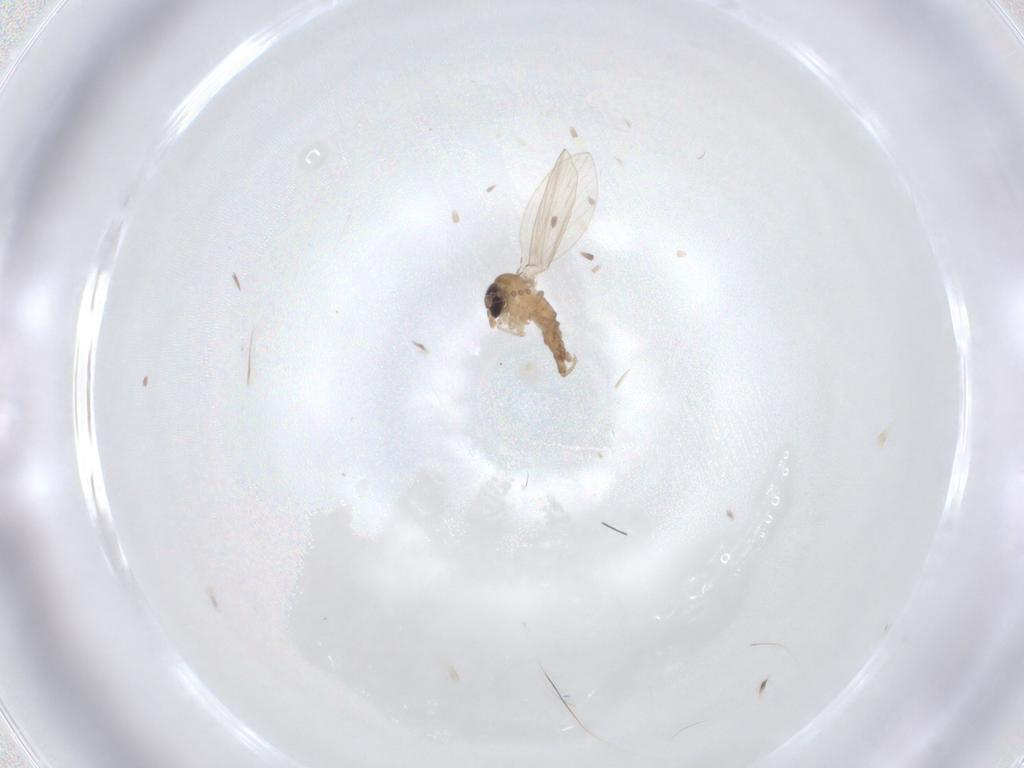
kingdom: Animalia
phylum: Arthropoda
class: Insecta
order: Diptera
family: Psychodidae
